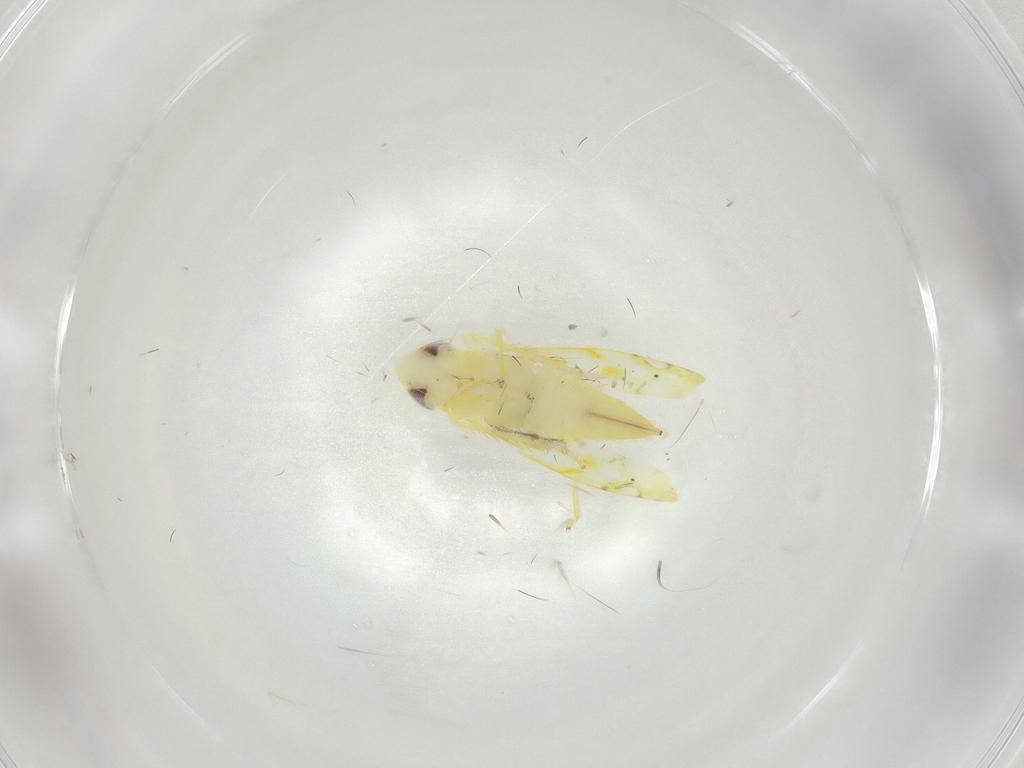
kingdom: Animalia
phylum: Arthropoda
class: Insecta
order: Hemiptera
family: Cicadellidae
